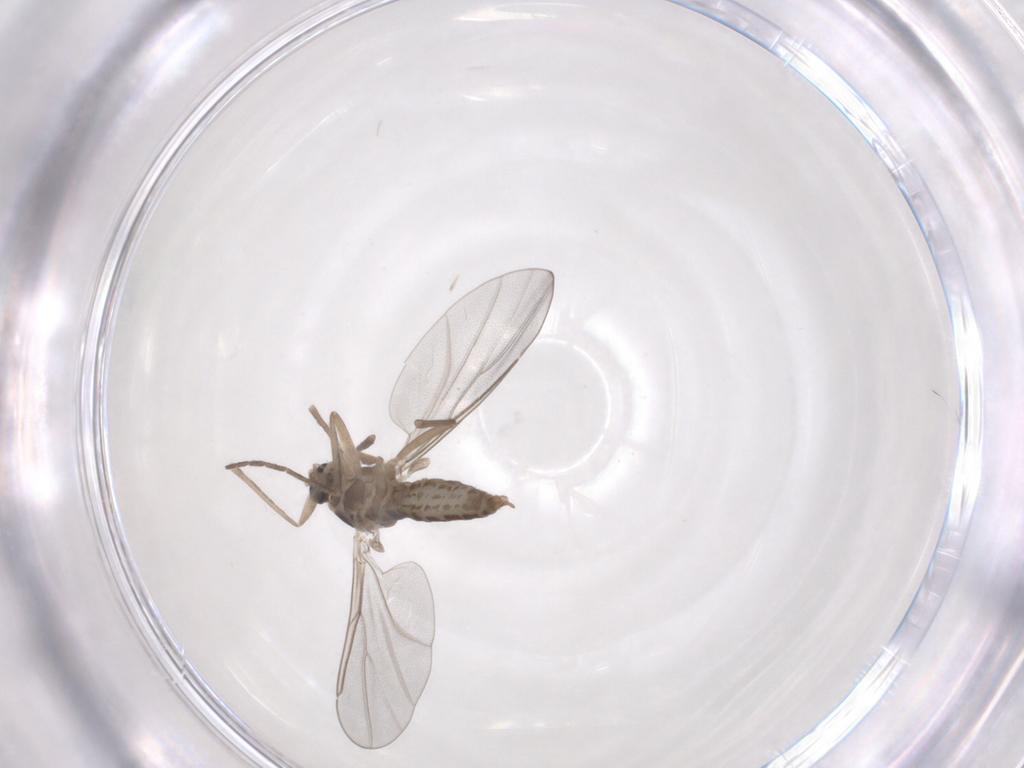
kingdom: Animalia
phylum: Arthropoda
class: Insecta
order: Diptera
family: Cecidomyiidae
